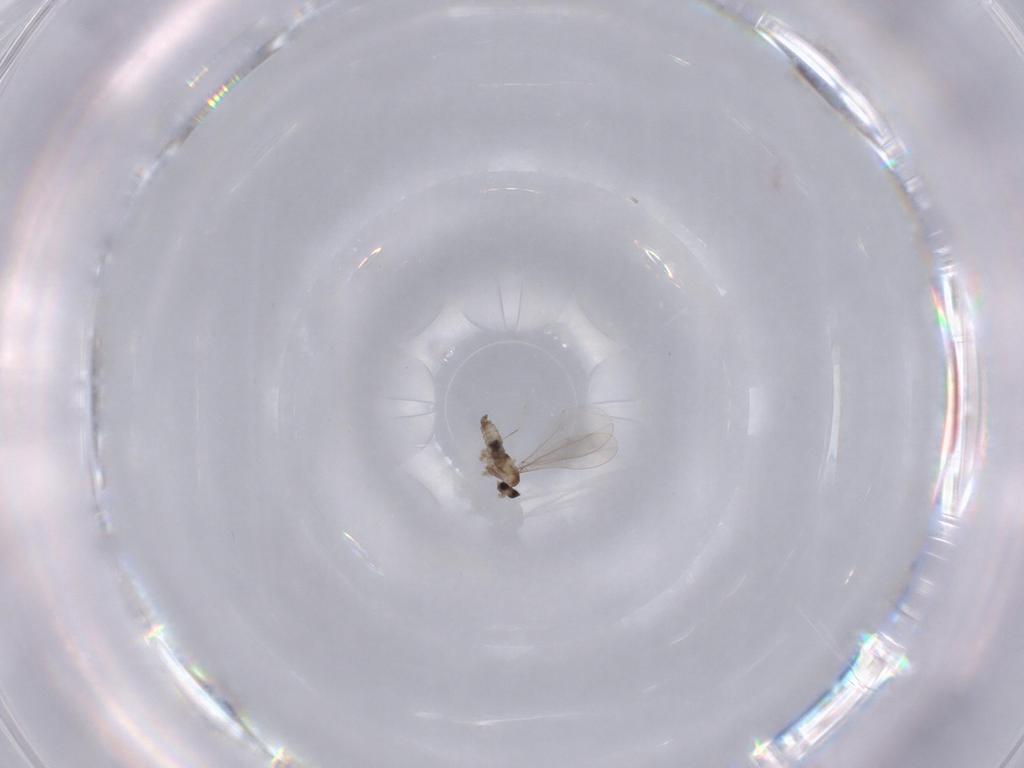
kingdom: Animalia
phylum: Arthropoda
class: Insecta
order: Diptera
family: Cecidomyiidae
